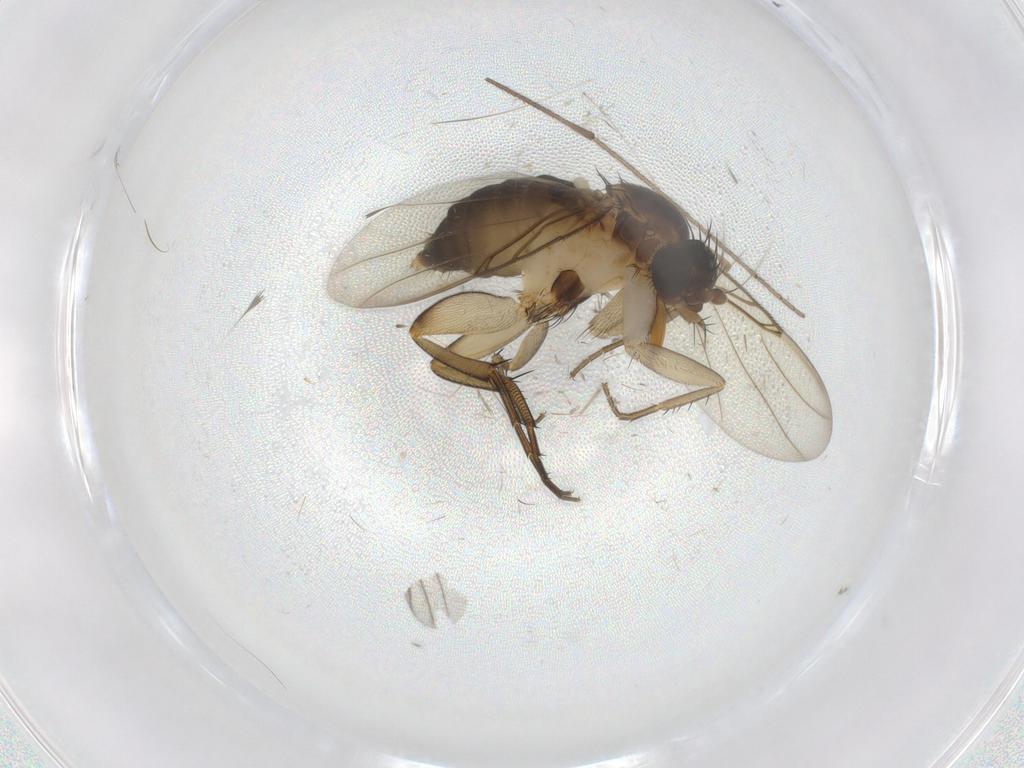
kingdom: Animalia
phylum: Arthropoda
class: Insecta
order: Diptera
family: Phoridae
